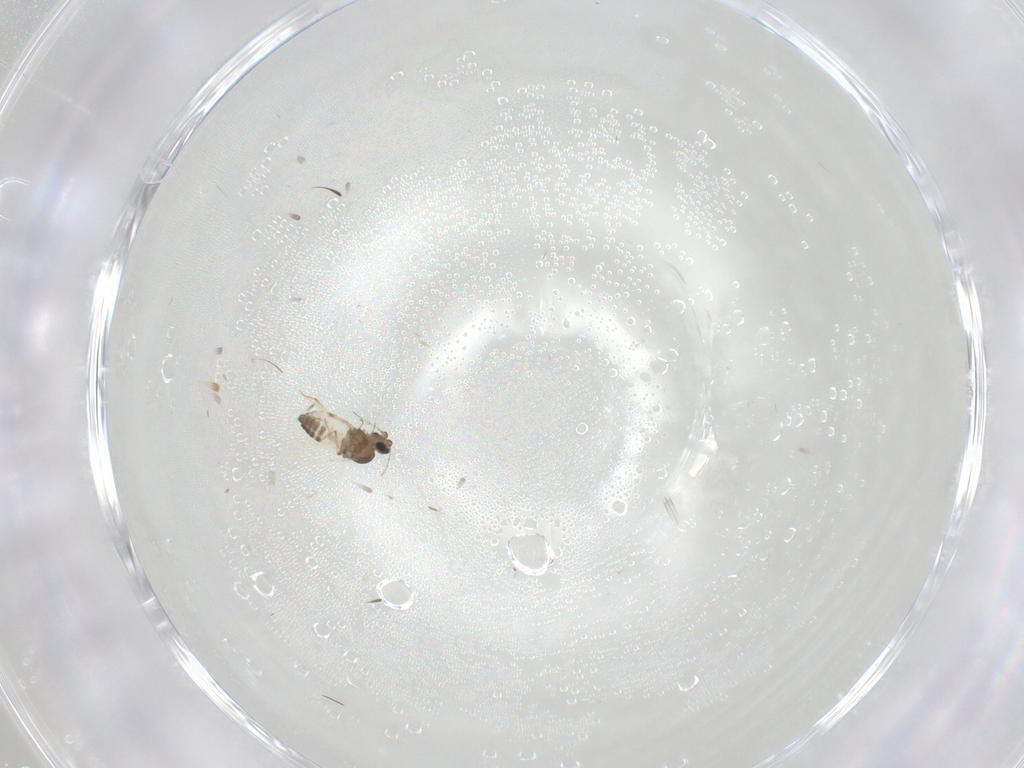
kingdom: Animalia
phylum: Arthropoda
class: Insecta
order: Diptera
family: Ceratopogonidae
